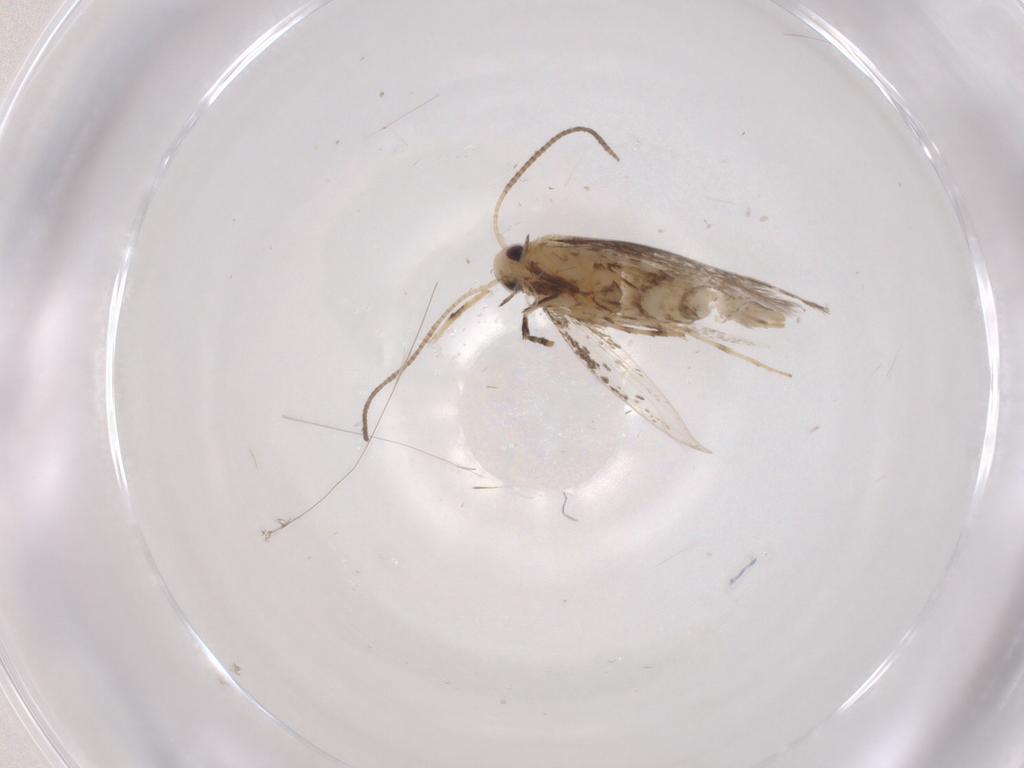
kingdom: Animalia
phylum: Arthropoda
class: Insecta
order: Lepidoptera
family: Gracillariidae
